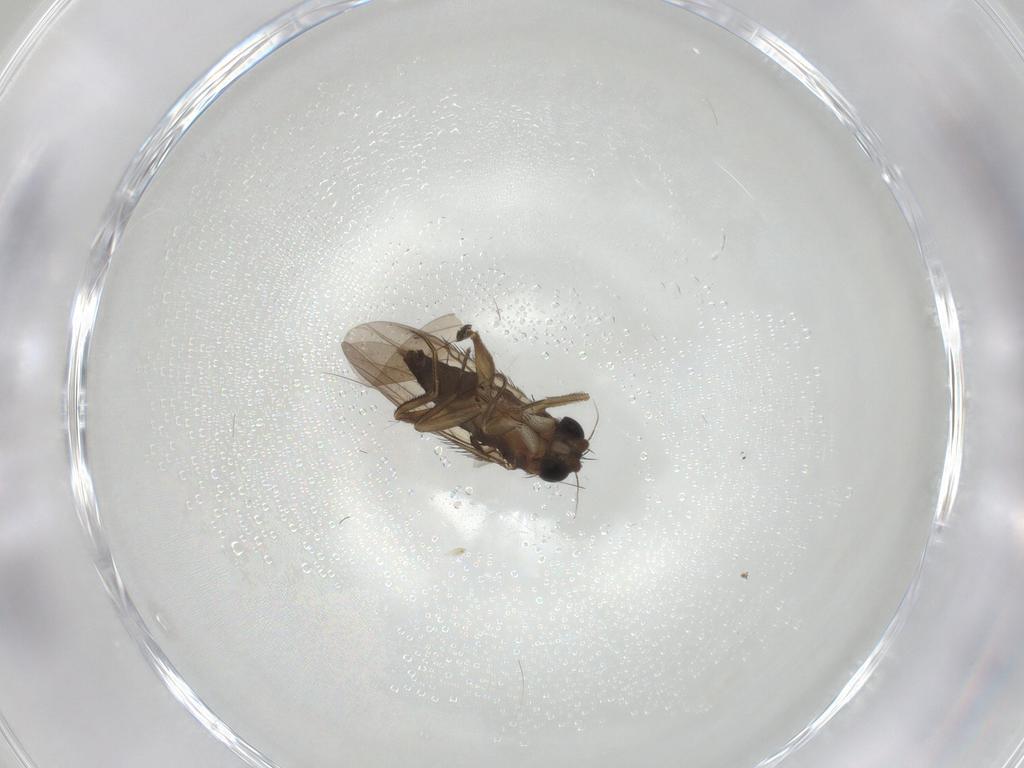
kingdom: Animalia
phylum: Arthropoda
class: Insecta
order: Diptera
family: Phoridae
